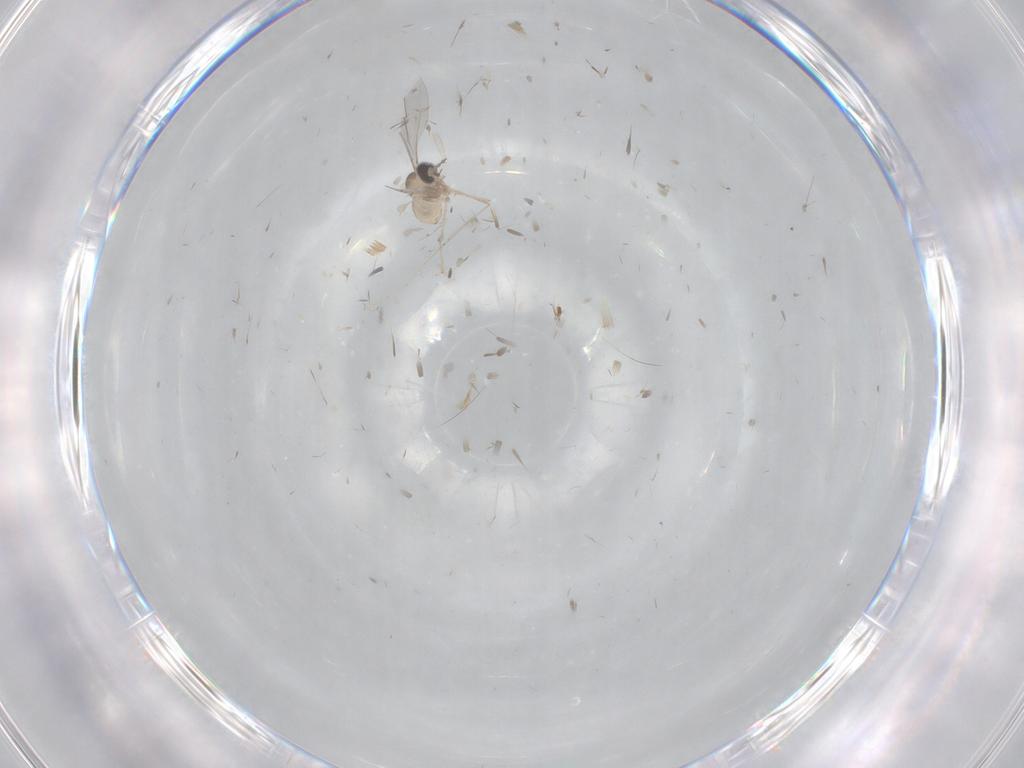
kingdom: Animalia
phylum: Arthropoda
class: Insecta
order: Diptera
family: Cecidomyiidae
